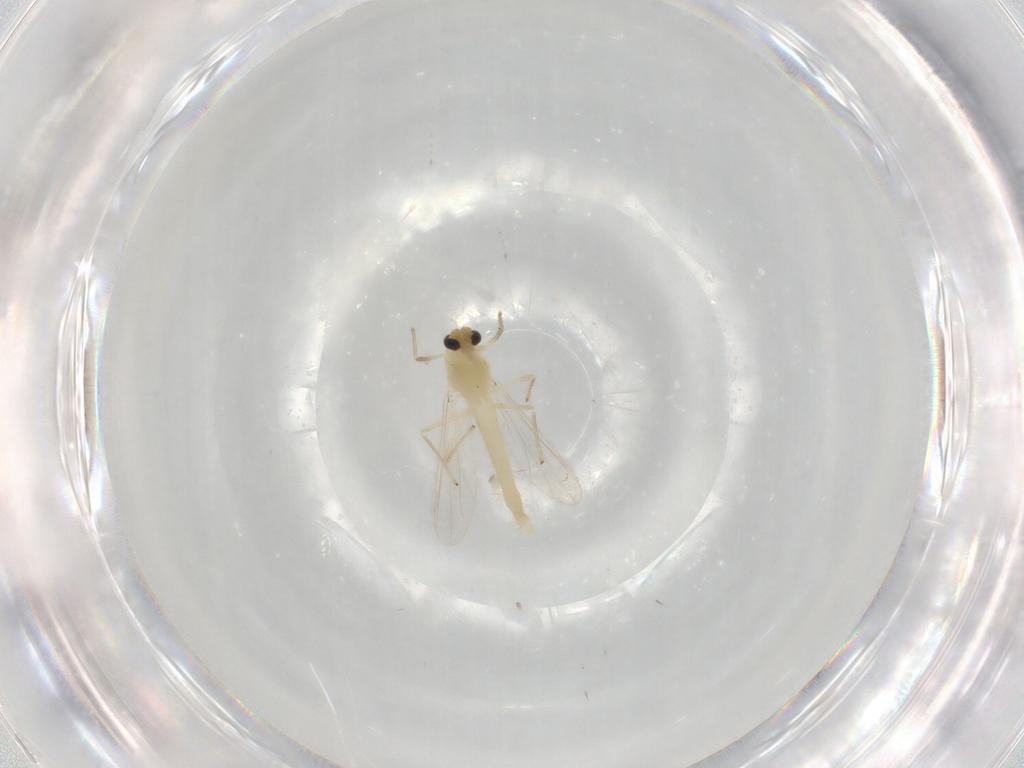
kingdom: Animalia
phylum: Arthropoda
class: Insecta
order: Diptera
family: Chironomidae
